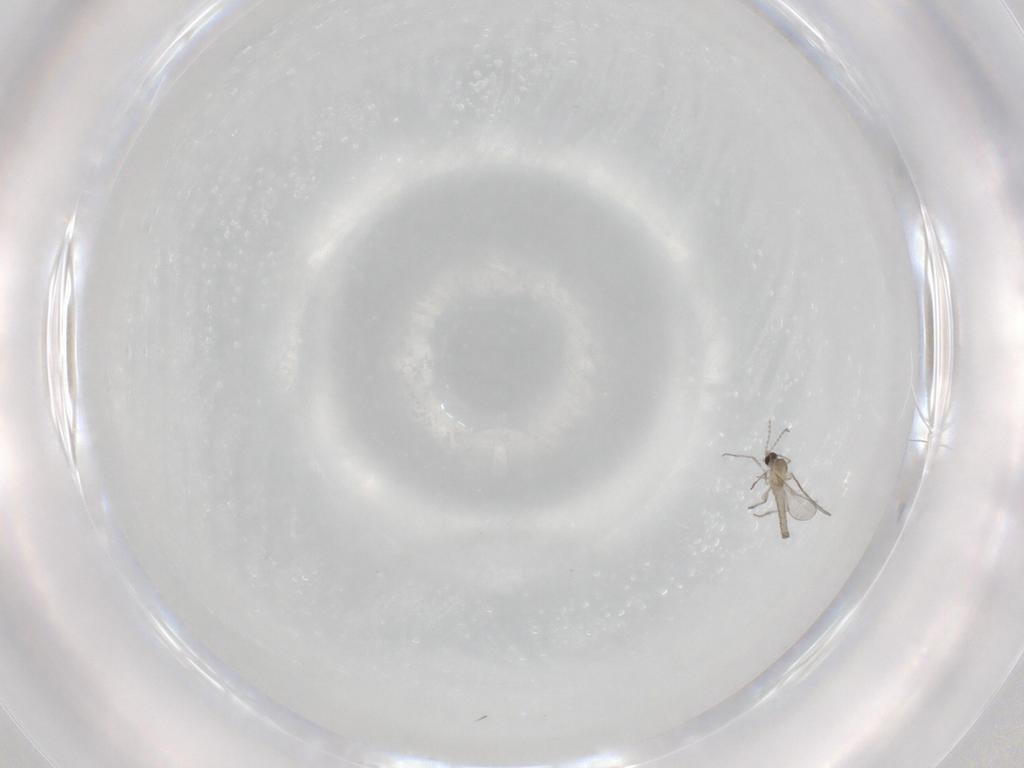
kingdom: Animalia
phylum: Arthropoda
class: Insecta
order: Diptera
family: Cecidomyiidae
